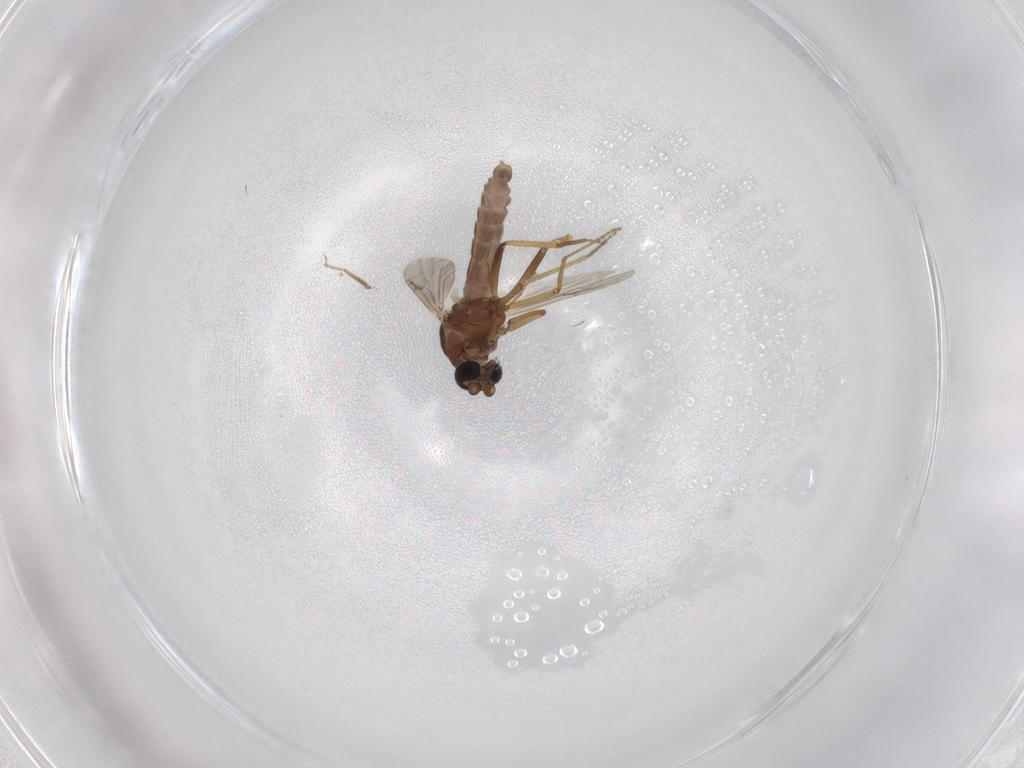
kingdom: Animalia
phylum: Arthropoda
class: Insecta
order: Diptera
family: Ceratopogonidae
